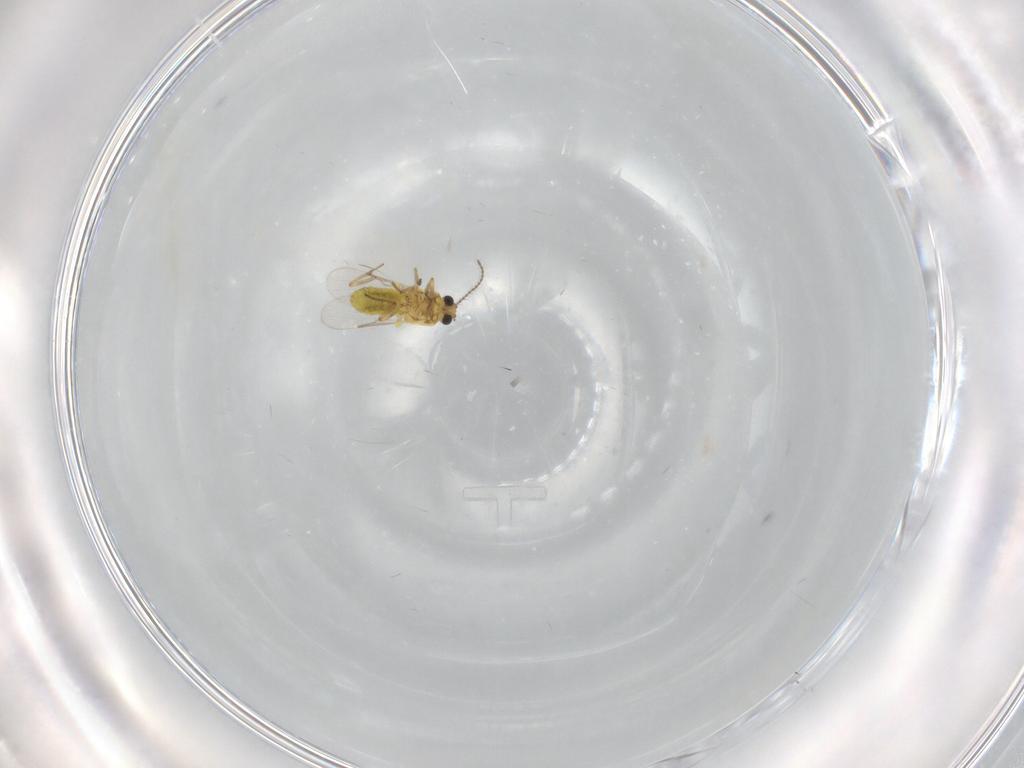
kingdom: Animalia
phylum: Arthropoda
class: Insecta
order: Diptera
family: Ceratopogonidae
